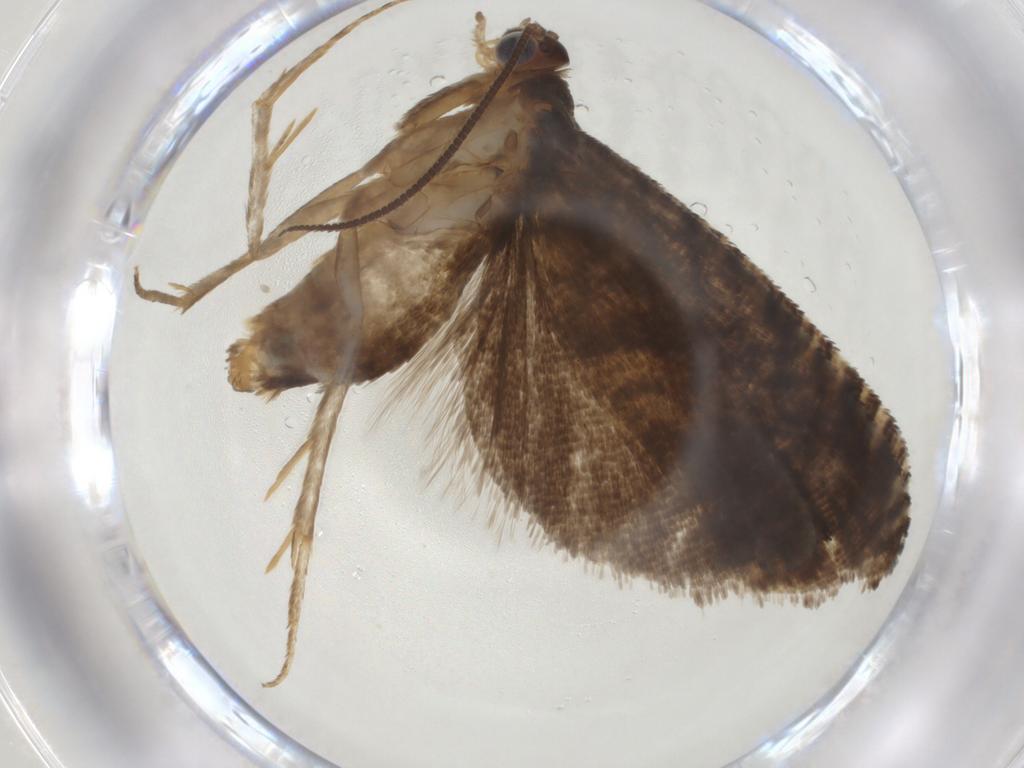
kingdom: Animalia
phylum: Arthropoda
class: Insecta
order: Lepidoptera
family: Tortricidae
